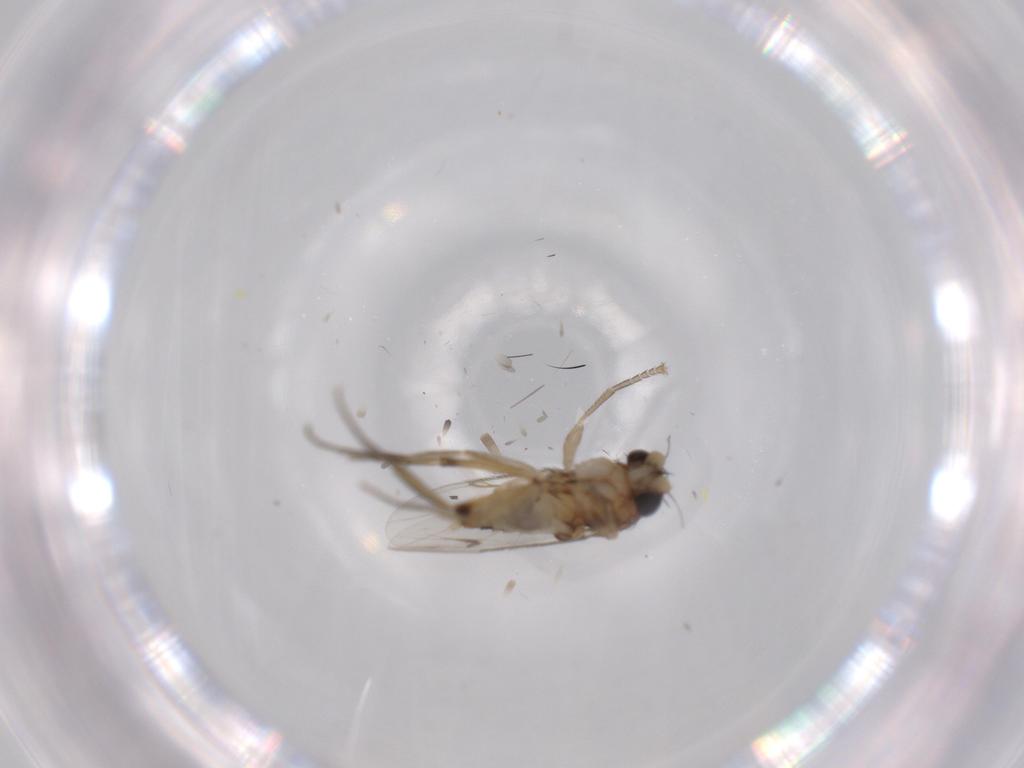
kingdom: Animalia
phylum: Arthropoda
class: Insecta
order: Diptera
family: Phoridae
